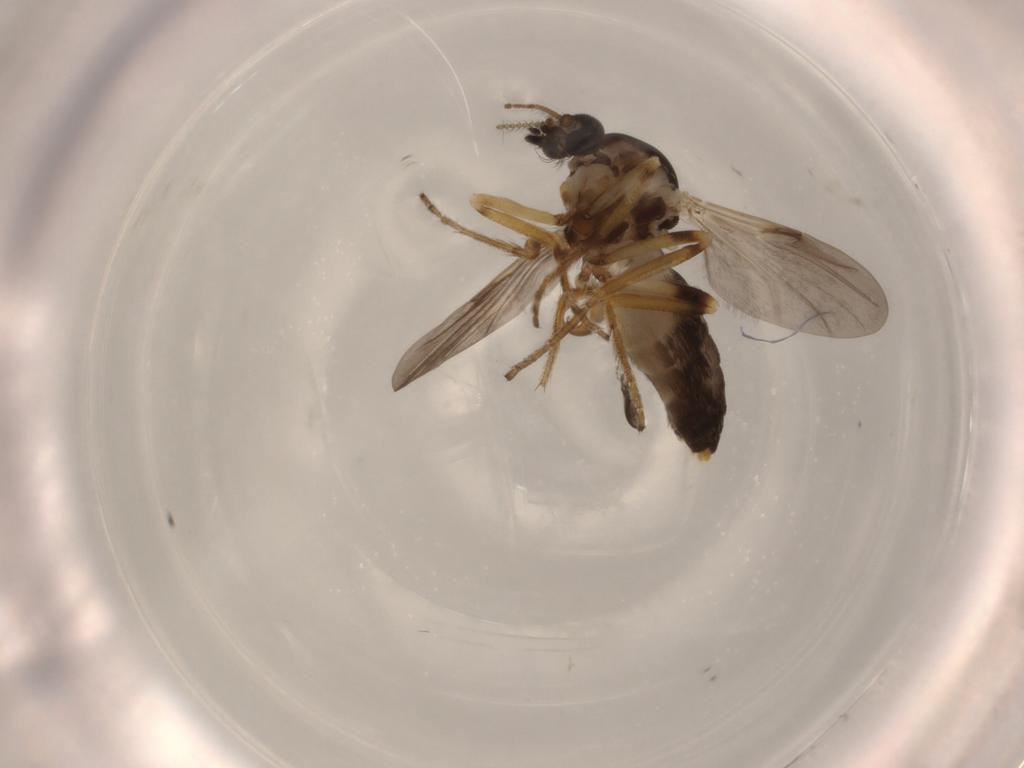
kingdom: Animalia
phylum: Arthropoda
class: Insecta
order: Diptera
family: Ceratopogonidae
